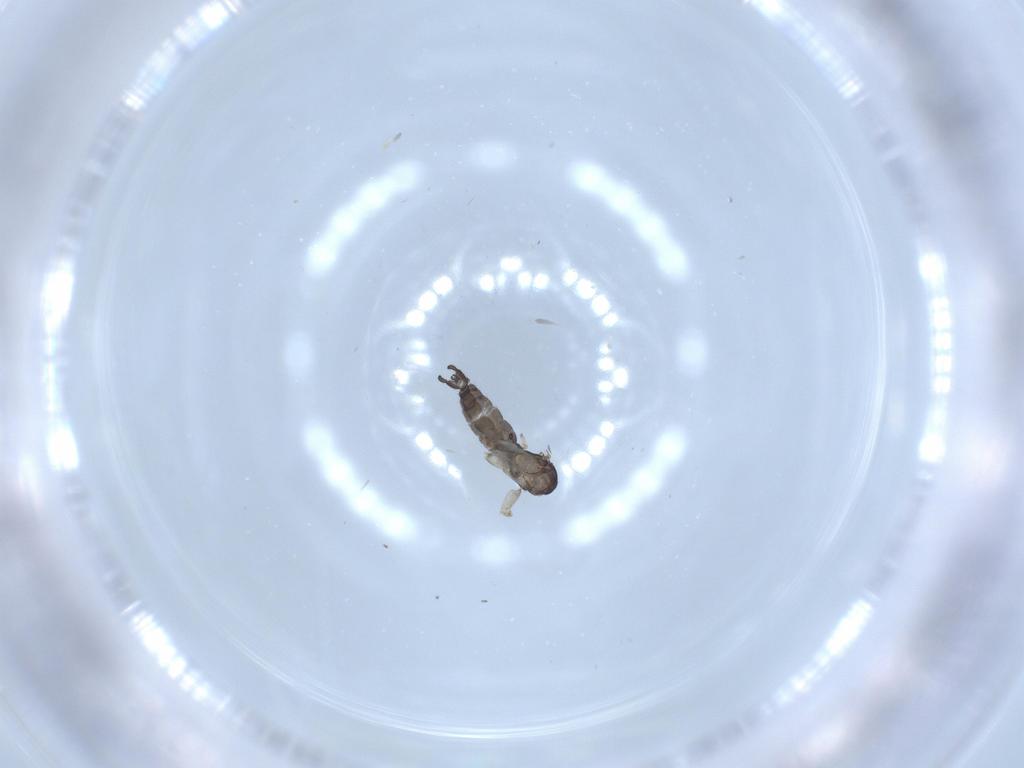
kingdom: Animalia
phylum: Arthropoda
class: Insecta
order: Diptera
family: Sciaridae
